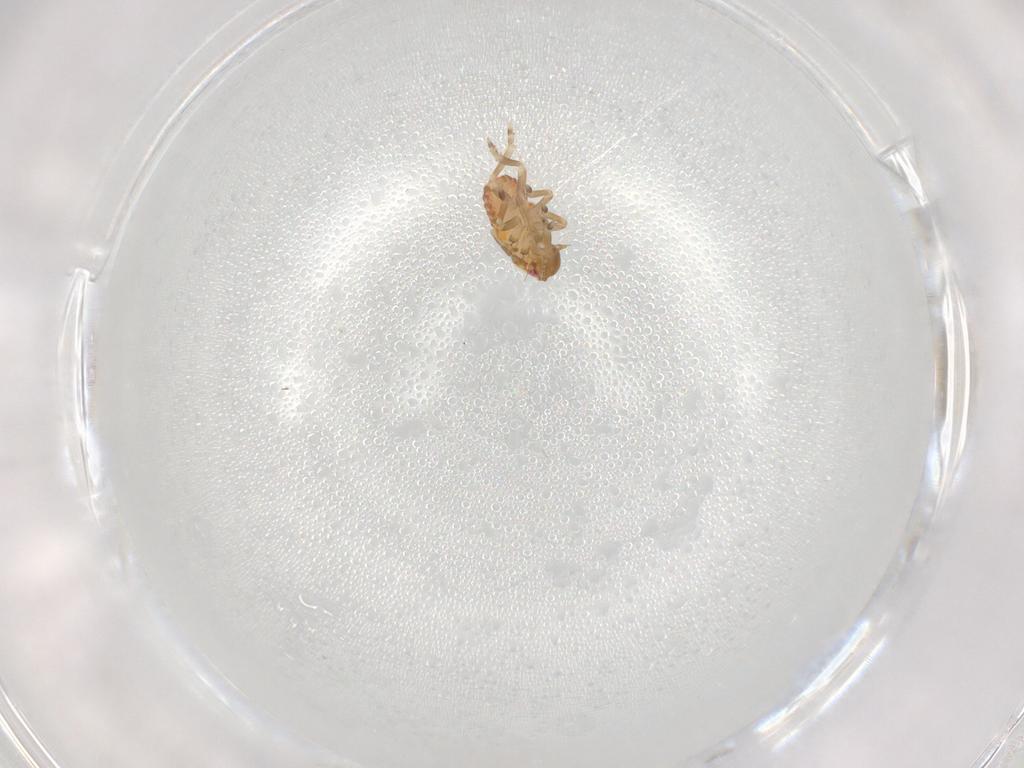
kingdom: Animalia
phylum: Arthropoda
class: Insecta
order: Hemiptera
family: Flatidae
